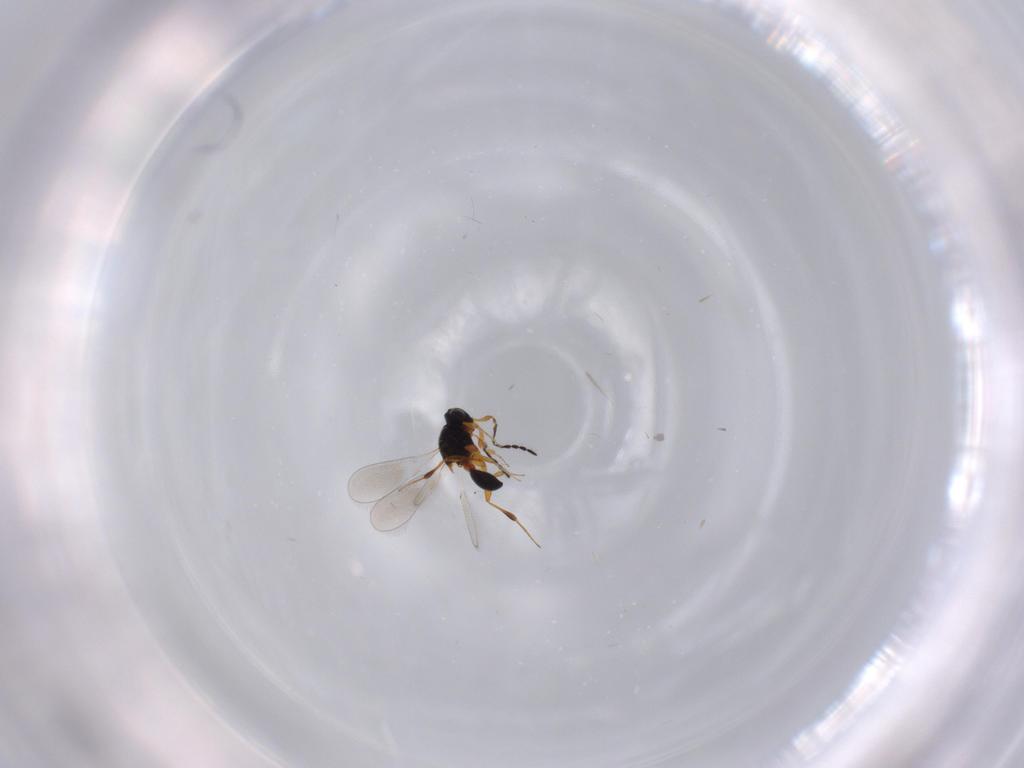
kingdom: Animalia
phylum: Arthropoda
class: Insecta
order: Hymenoptera
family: Platygastridae
